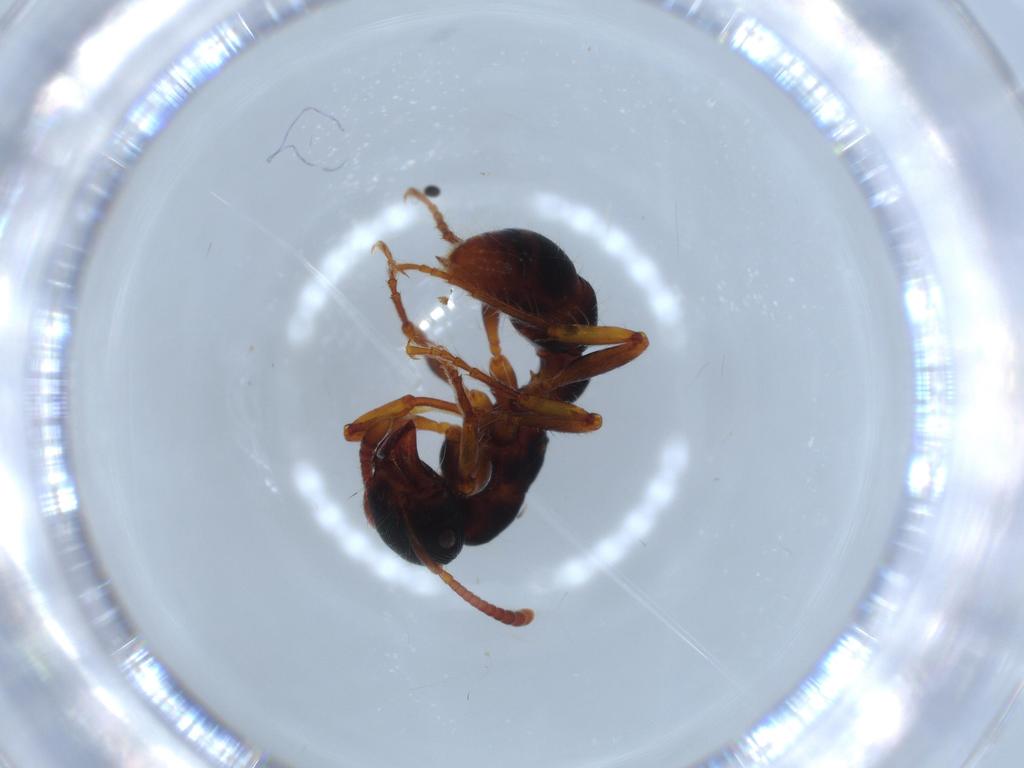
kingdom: Animalia
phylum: Arthropoda
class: Insecta
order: Hymenoptera
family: Formicidae
